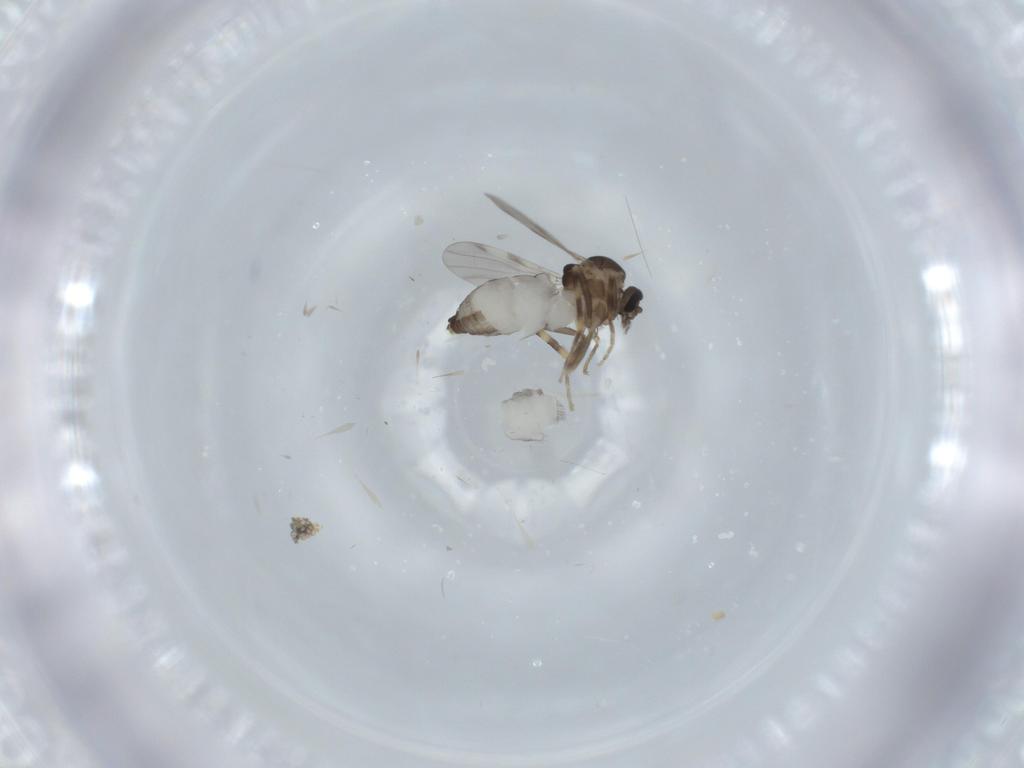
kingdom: Animalia
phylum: Arthropoda
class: Insecta
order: Diptera
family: Ceratopogonidae
